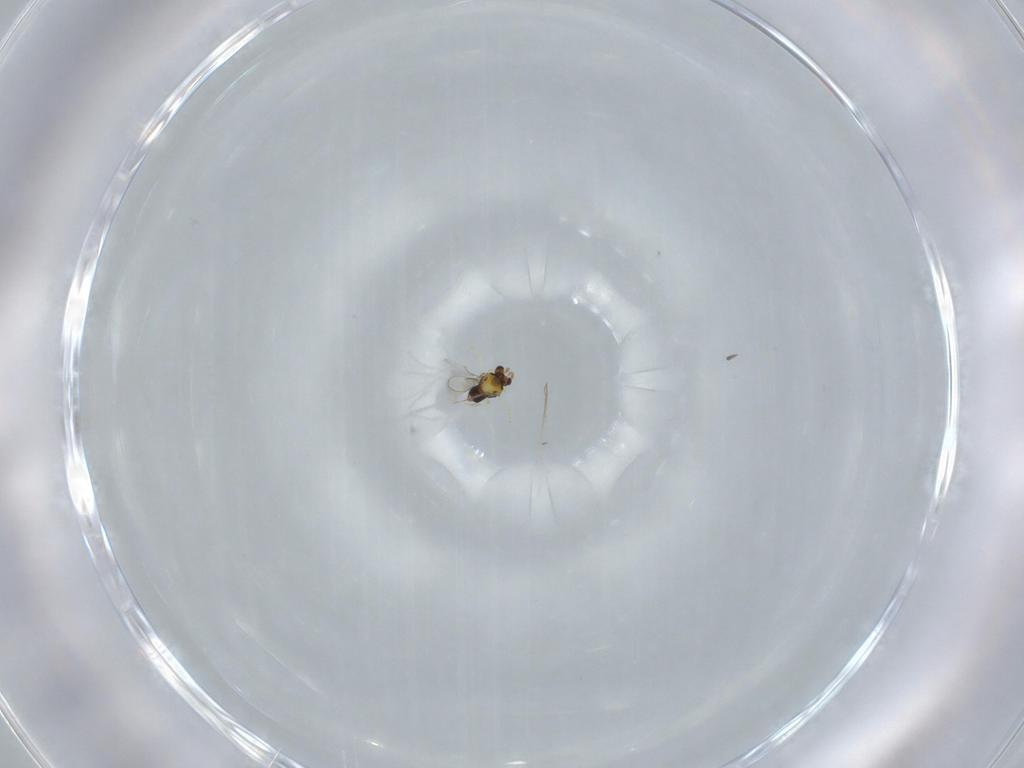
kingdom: Animalia
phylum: Arthropoda
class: Insecta
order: Hymenoptera
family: Aphelinidae
